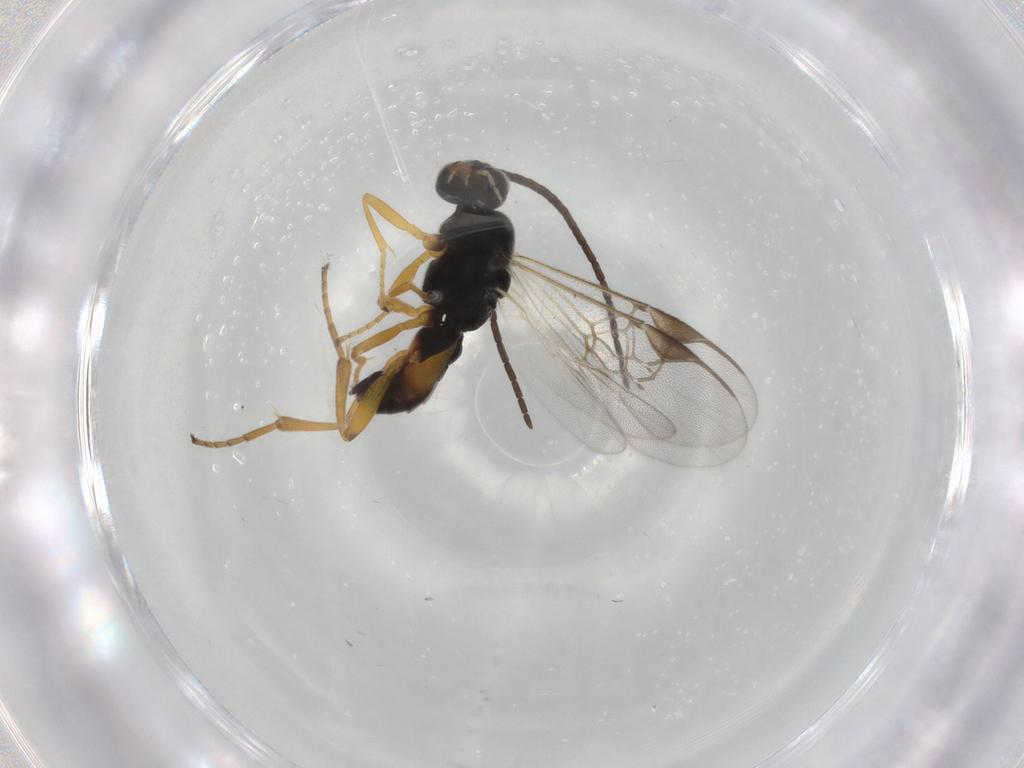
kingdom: Animalia
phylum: Arthropoda
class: Insecta
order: Hymenoptera
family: Braconidae
